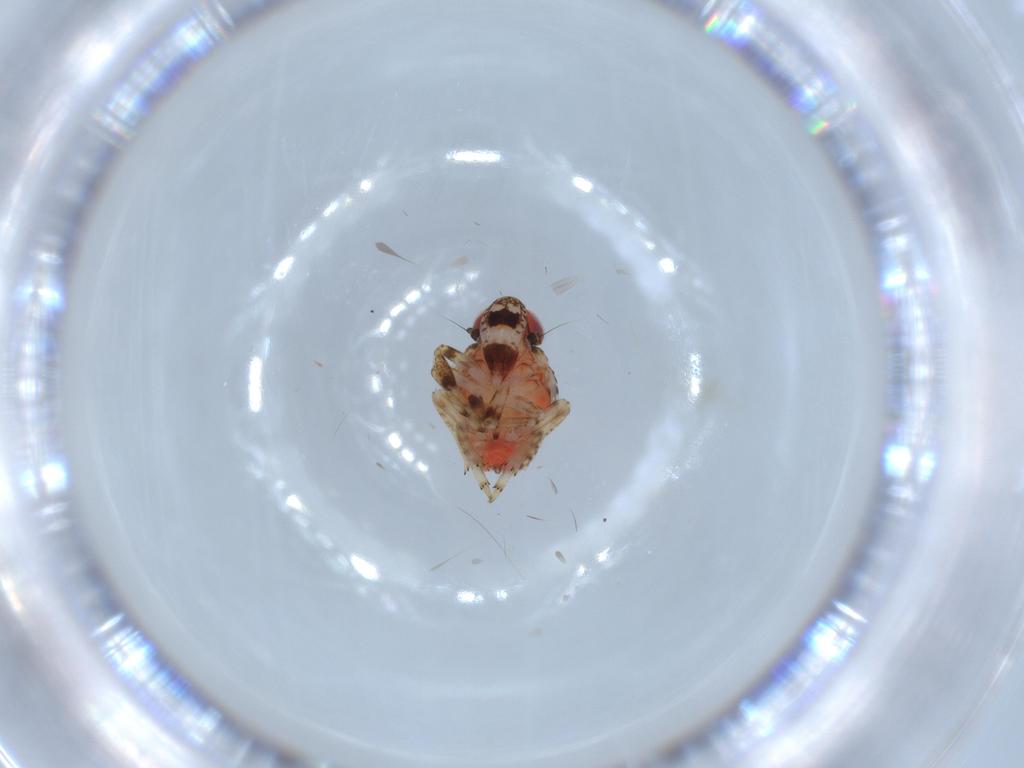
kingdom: Animalia
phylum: Arthropoda
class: Insecta
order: Hemiptera
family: Issidae
